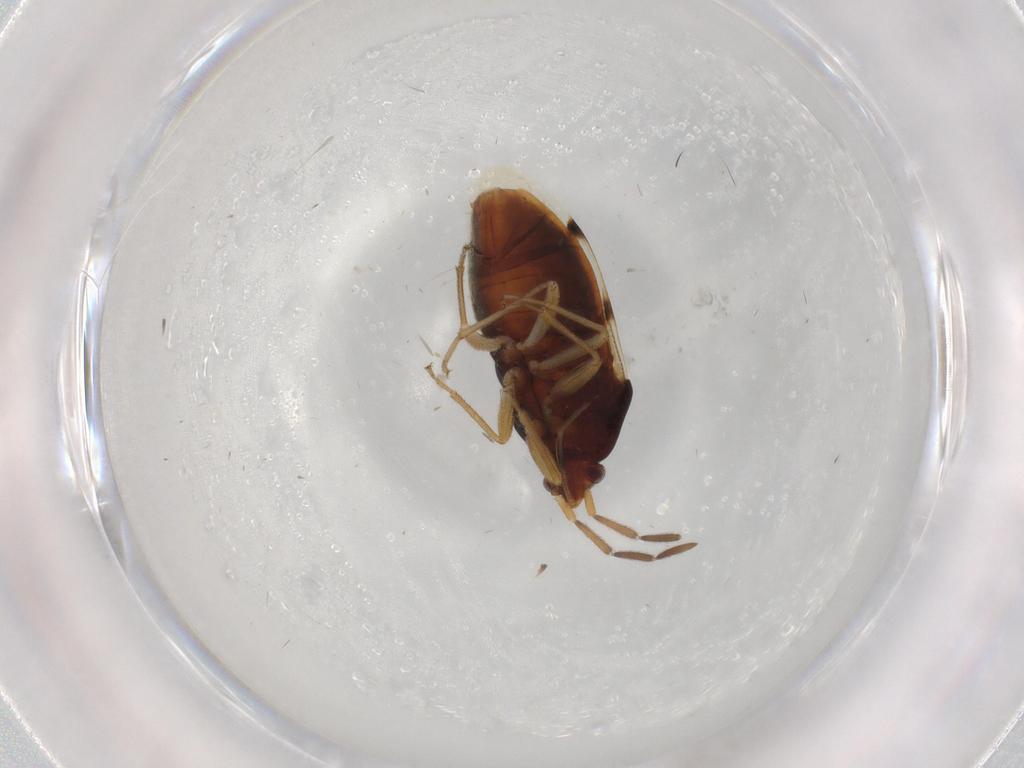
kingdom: Animalia
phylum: Arthropoda
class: Insecta
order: Hemiptera
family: Rhyparochromidae
